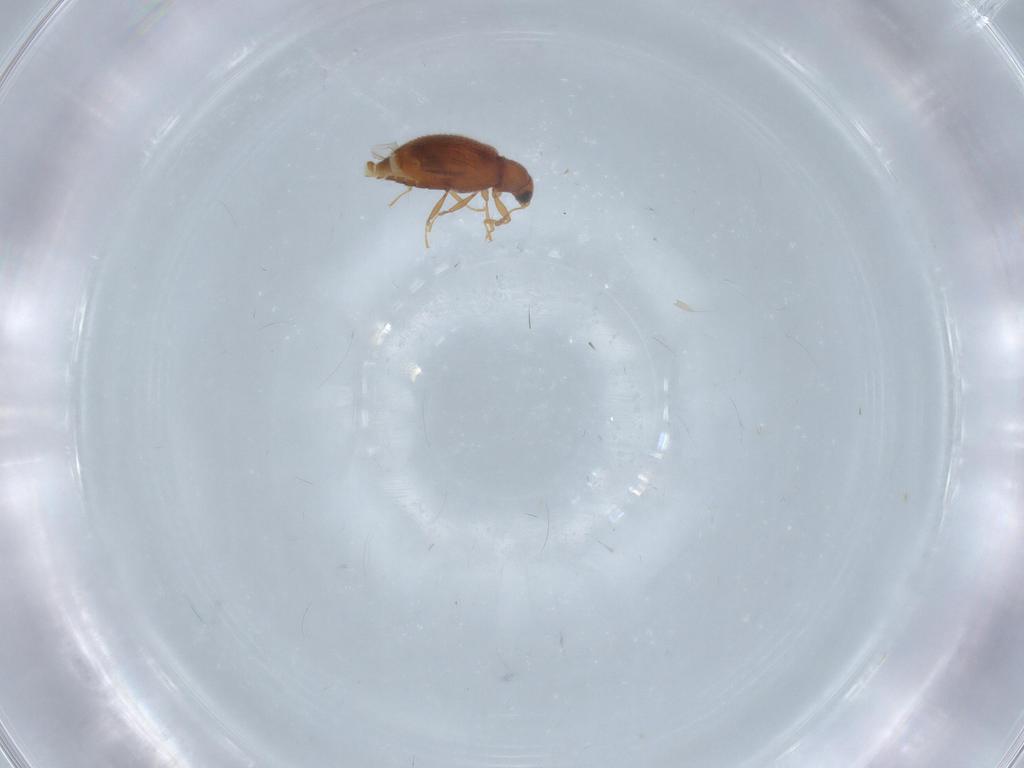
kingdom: Animalia
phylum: Arthropoda
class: Insecta
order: Coleoptera
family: Latridiidae
